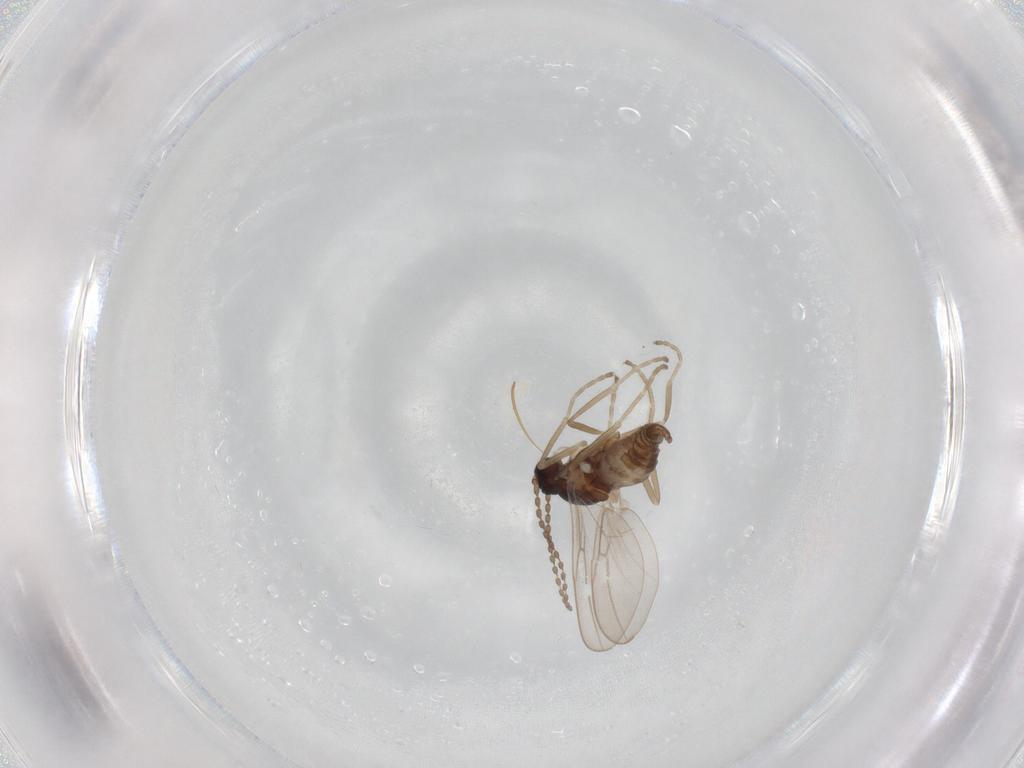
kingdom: Animalia
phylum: Arthropoda
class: Insecta
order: Diptera
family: Cecidomyiidae
